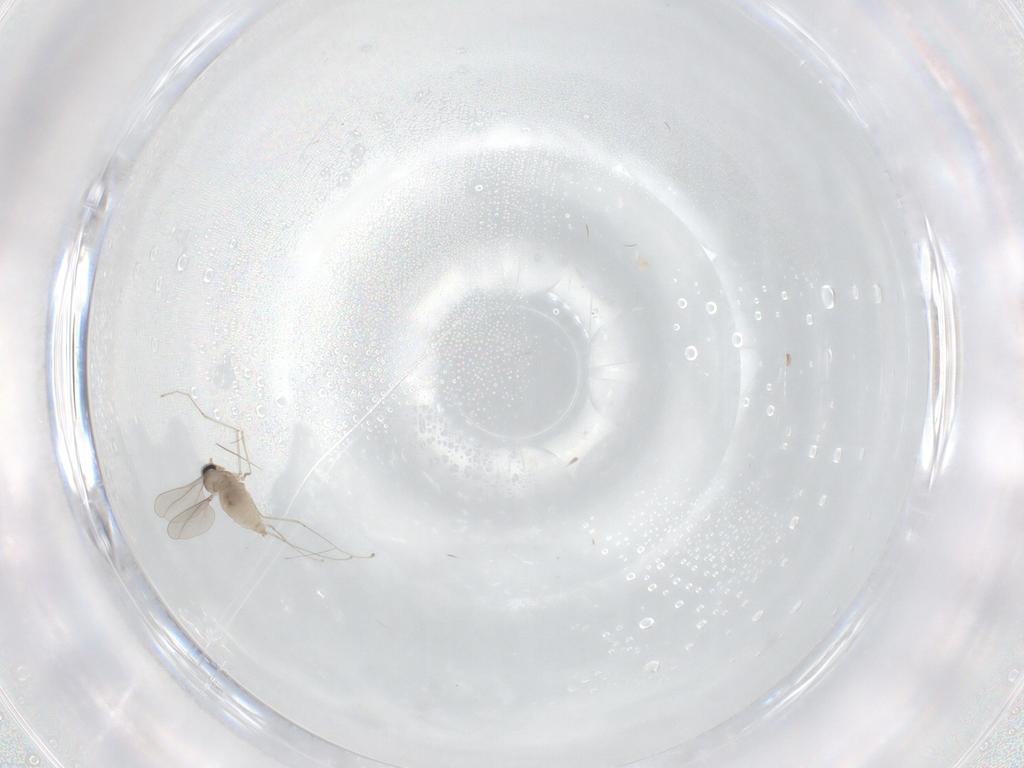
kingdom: Animalia
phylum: Arthropoda
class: Insecta
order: Diptera
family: Cecidomyiidae
